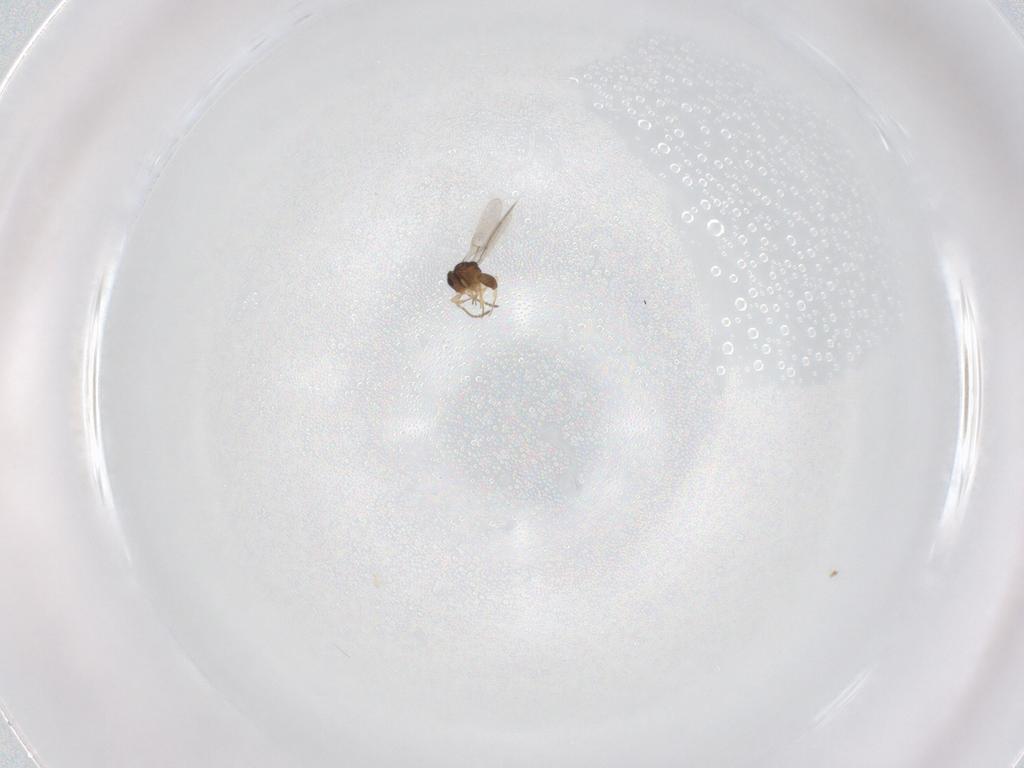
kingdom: Animalia
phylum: Arthropoda
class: Insecta
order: Hymenoptera
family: Scelionidae
